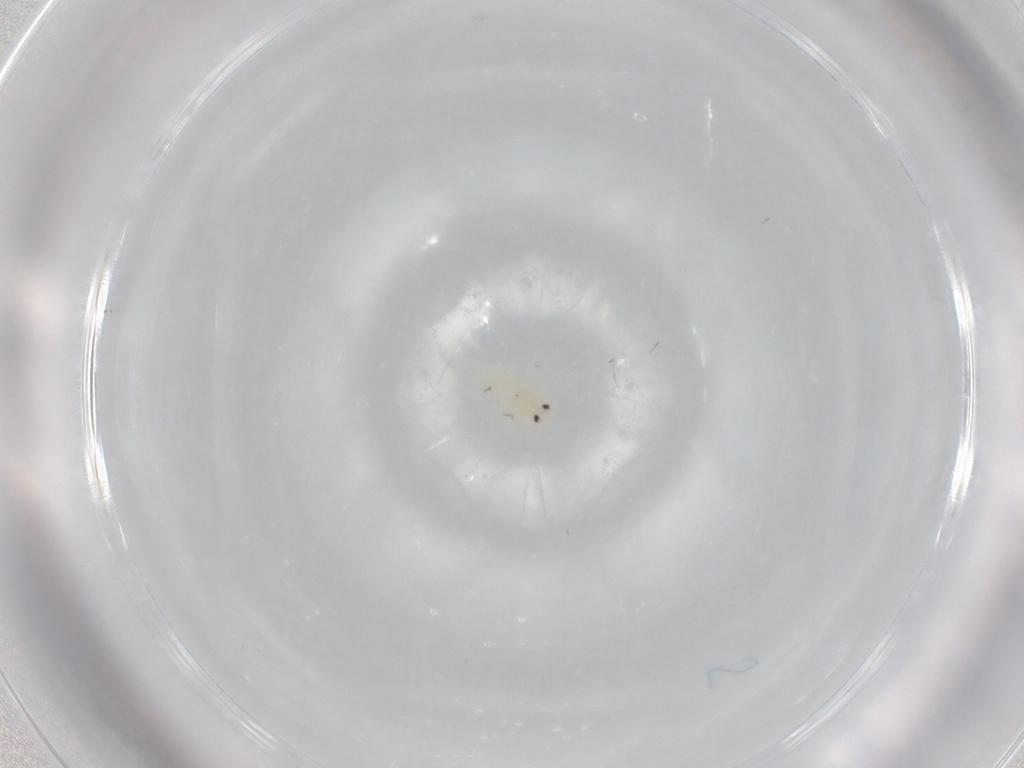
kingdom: Animalia
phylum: Arthropoda
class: Insecta
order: Hemiptera
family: Aleyrodidae
